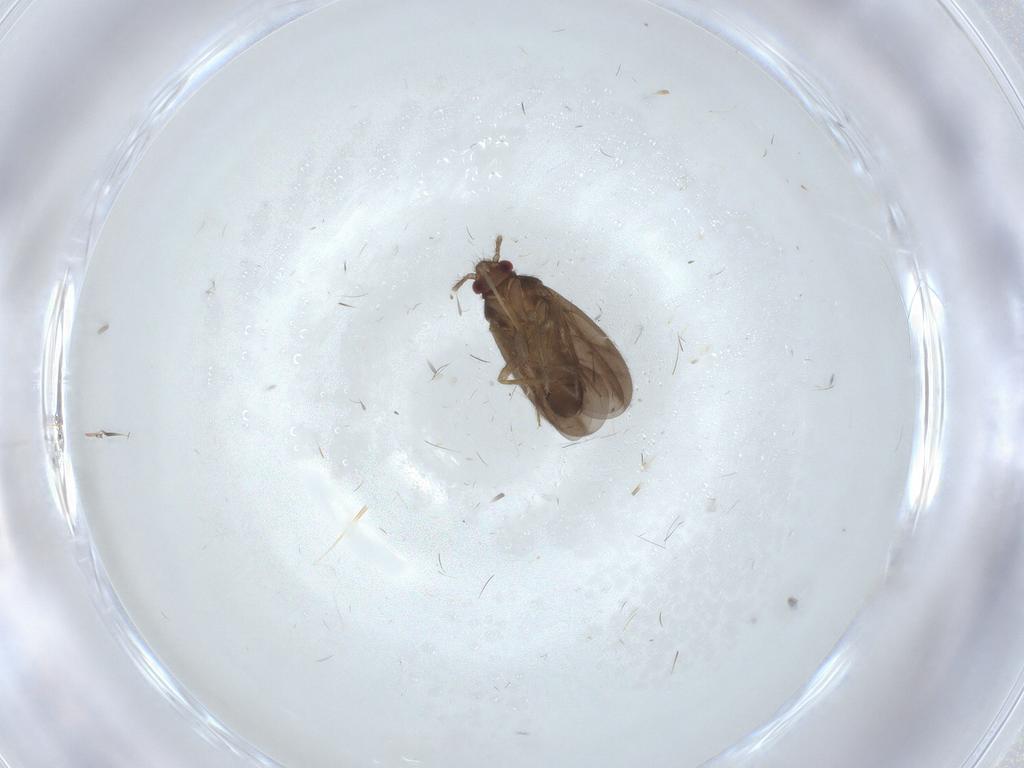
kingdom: Animalia
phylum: Arthropoda
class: Insecta
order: Hemiptera
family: Ceratocombidae
